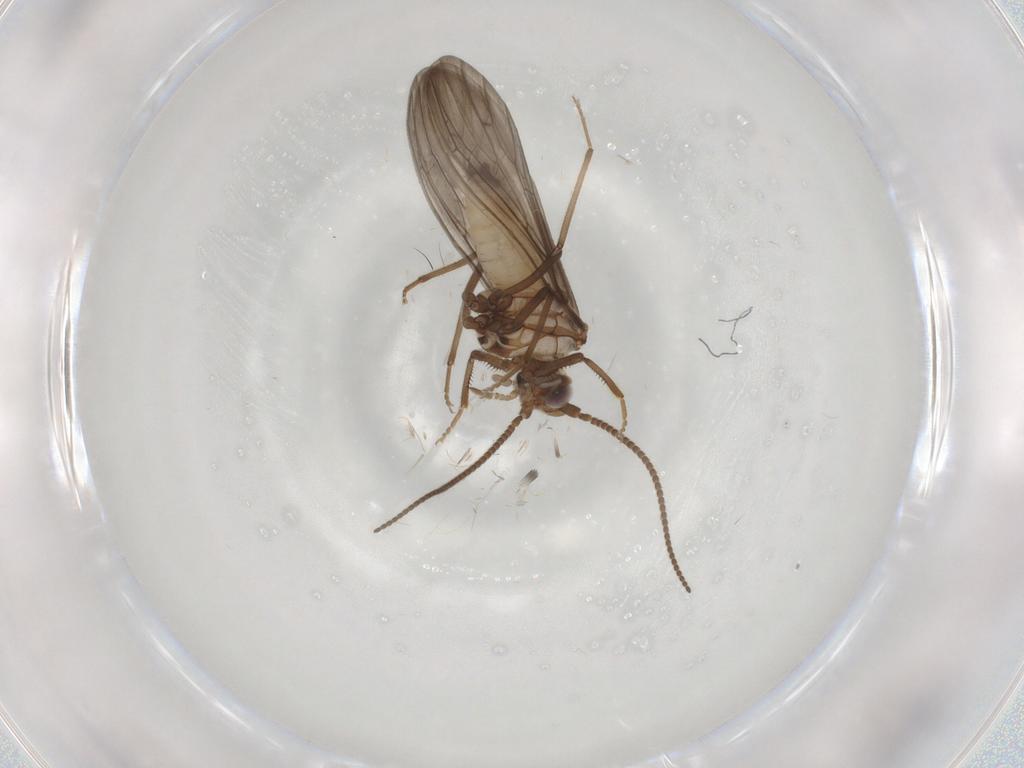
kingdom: Animalia
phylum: Arthropoda
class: Insecta
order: Neuroptera
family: Coniopterygidae
